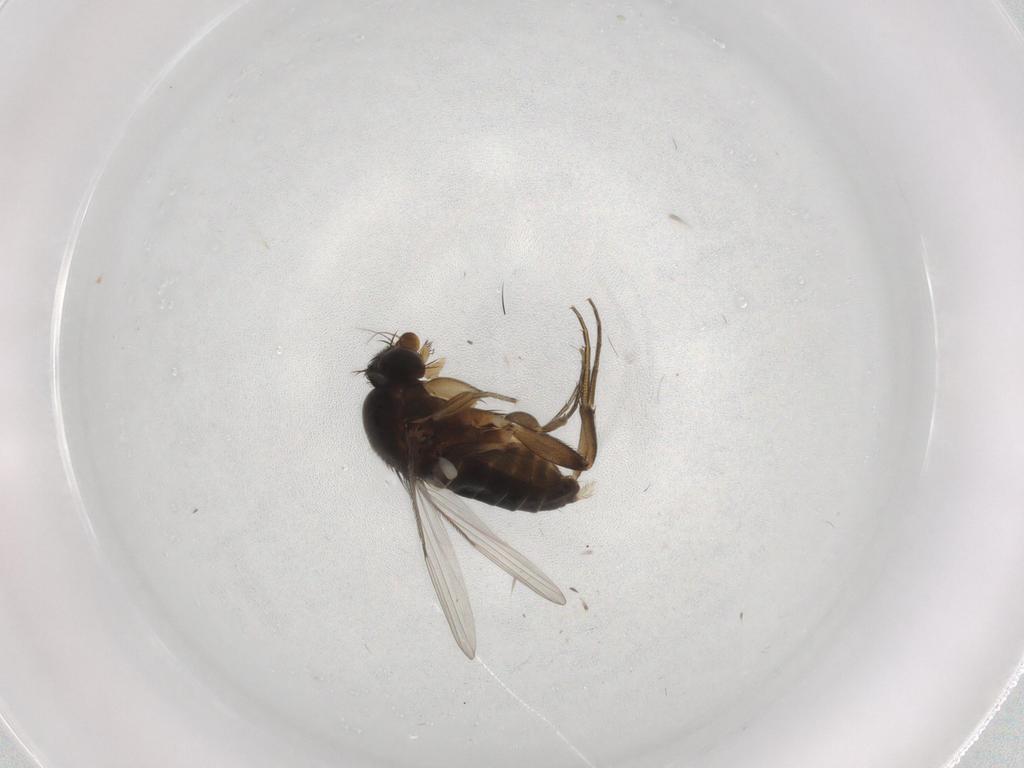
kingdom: Animalia
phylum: Arthropoda
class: Insecta
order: Diptera
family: Phoridae
